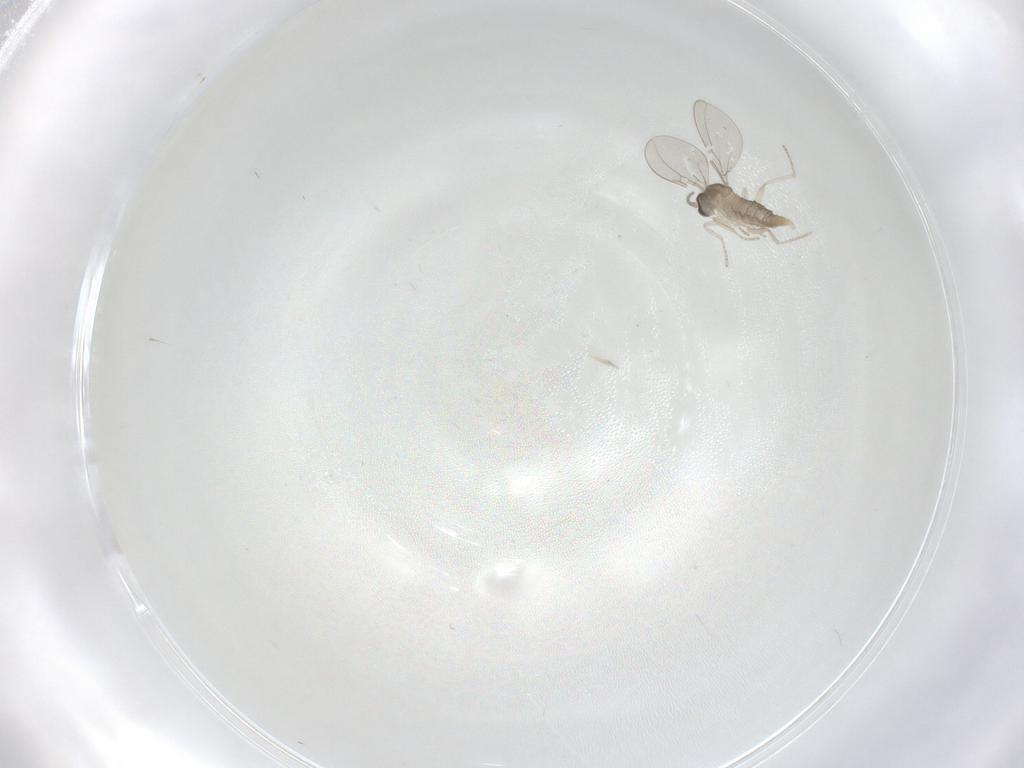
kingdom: Animalia
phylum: Arthropoda
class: Insecta
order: Diptera
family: Cecidomyiidae
